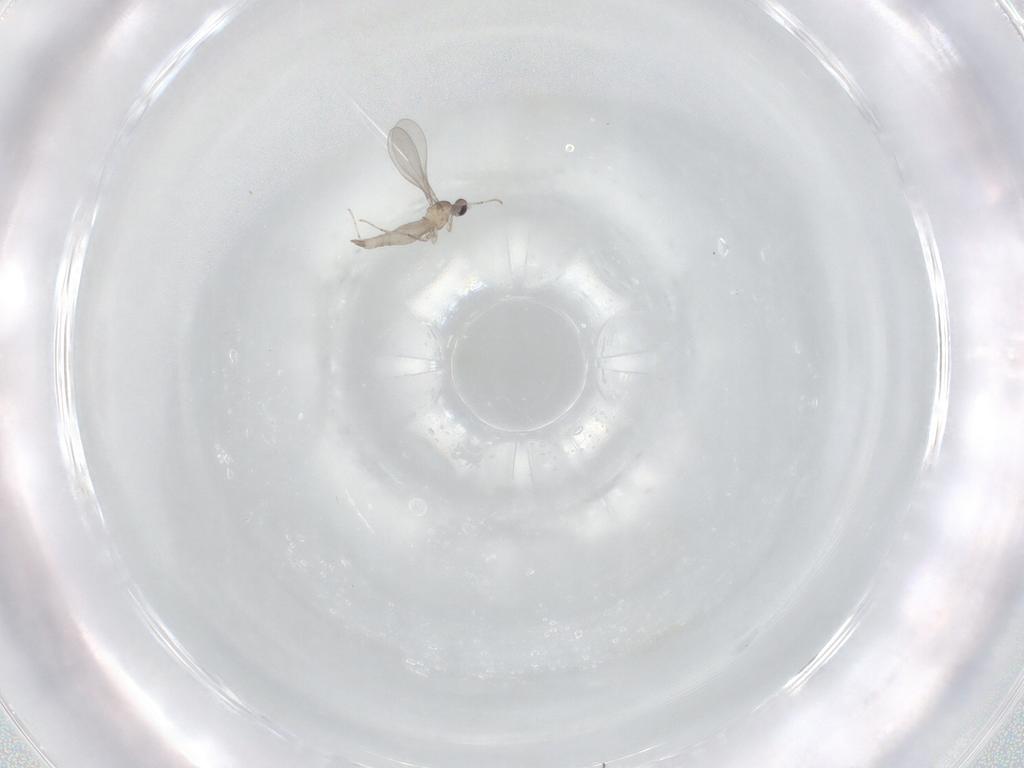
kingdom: Animalia
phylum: Arthropoda
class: Insecta
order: Diptera
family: Ceratopogonidae
